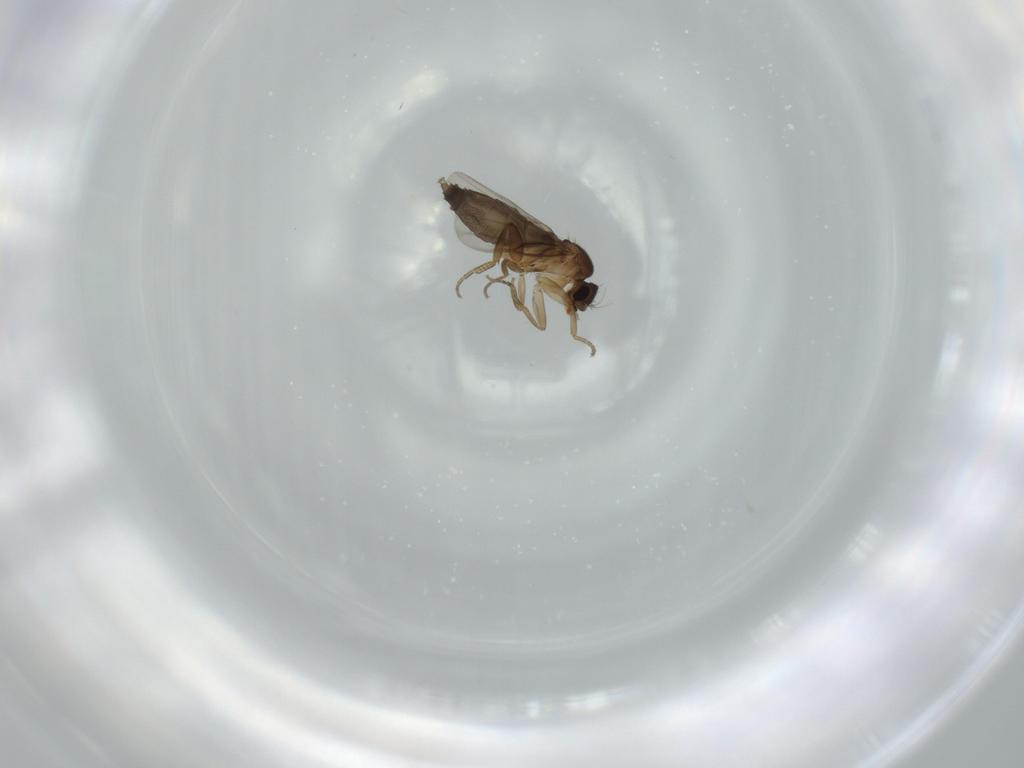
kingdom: Animalia
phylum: Arthropoda
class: Insecta
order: Diptera
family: Phoridae
